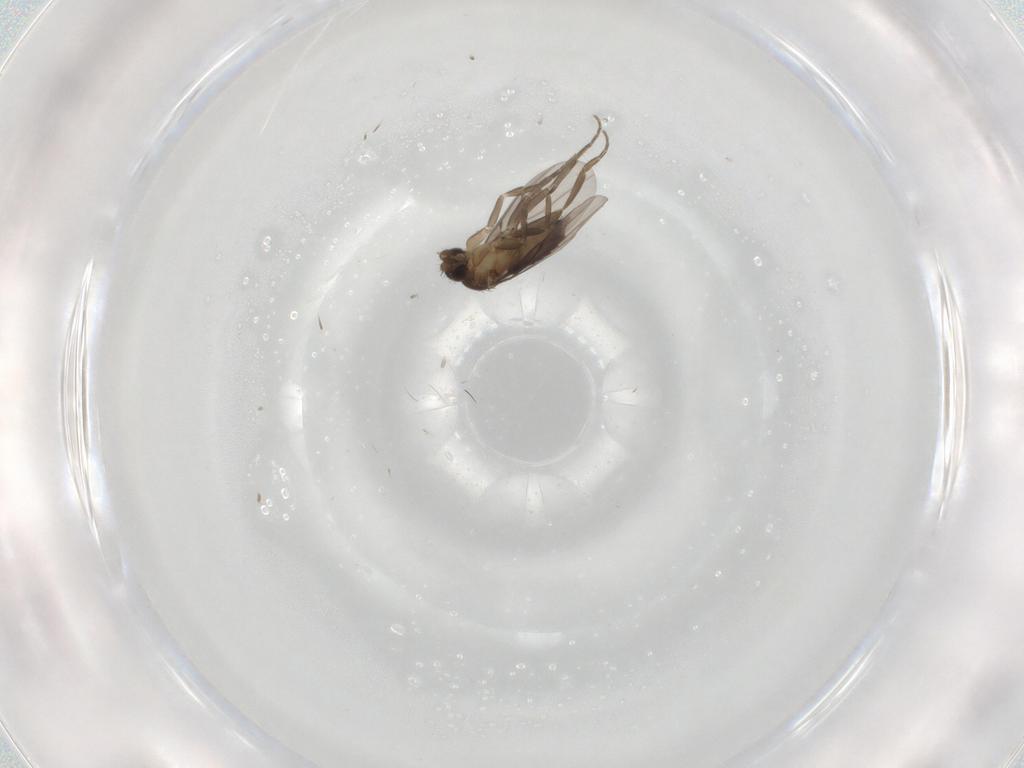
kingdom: Animalia
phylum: Arthropoda
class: Insecta
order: Diptera
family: Phoridae
